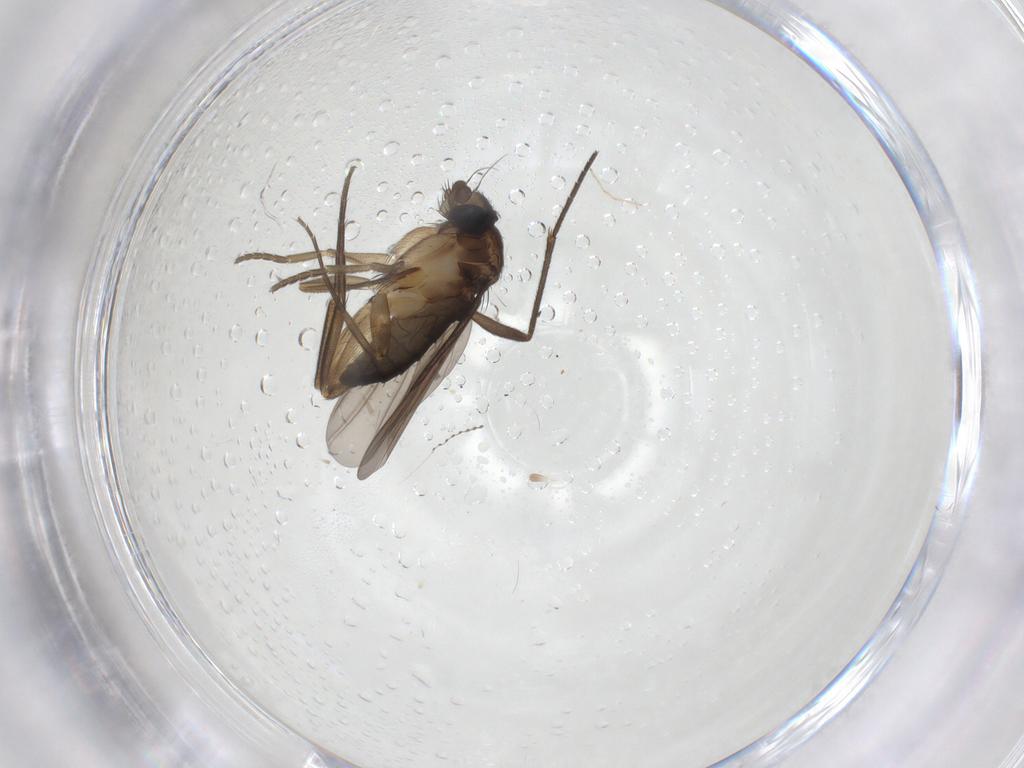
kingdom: Animalia
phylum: Arthropoda
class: Insecta
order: Diptera
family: Phoridae
